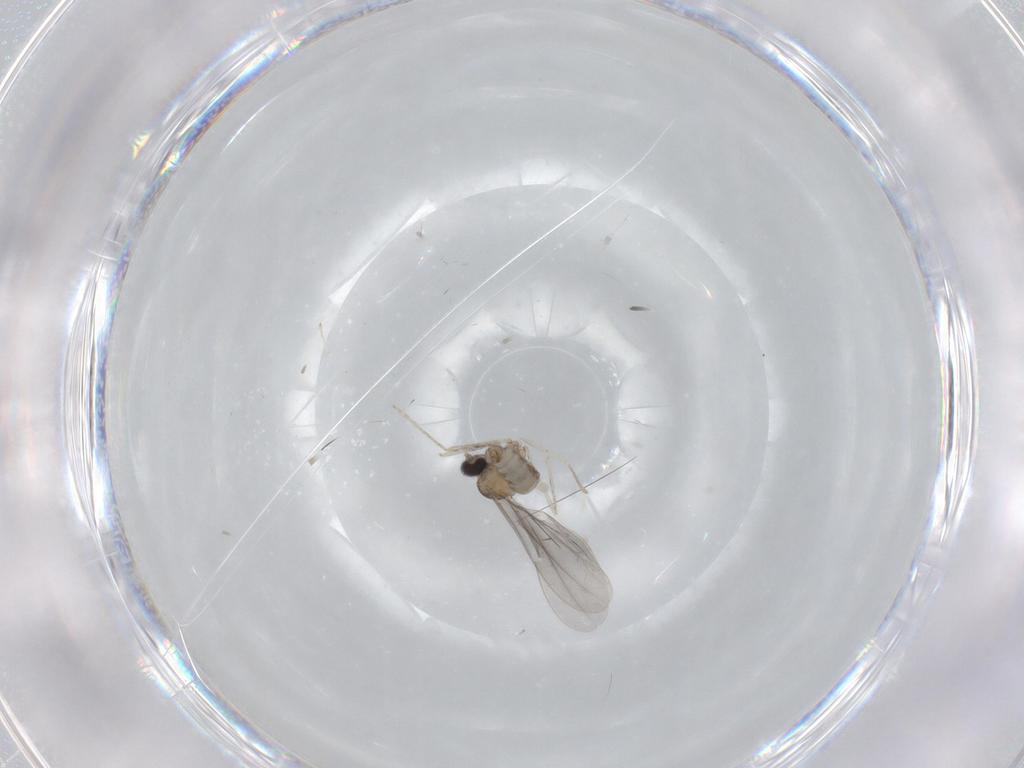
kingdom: Animalia
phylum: Arthropoda
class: Insecta
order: Diptera
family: Cecidomyiidae
